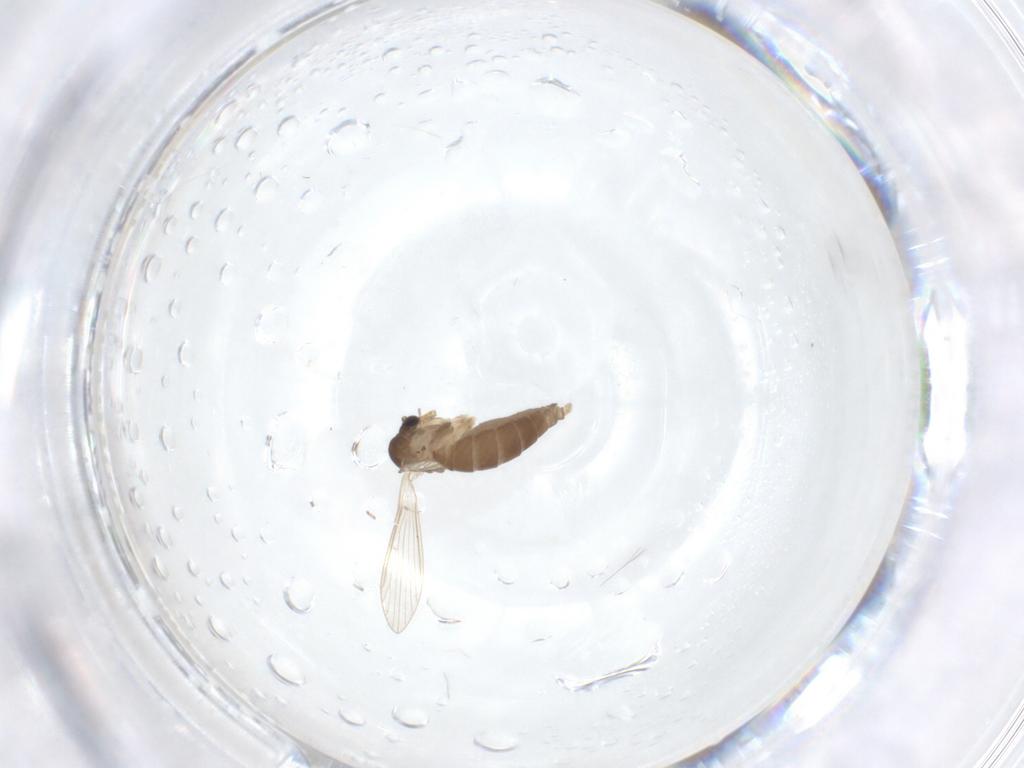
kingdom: Animalia
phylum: Arthropoda
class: Insecta
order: Diptera
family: Psychodidae
